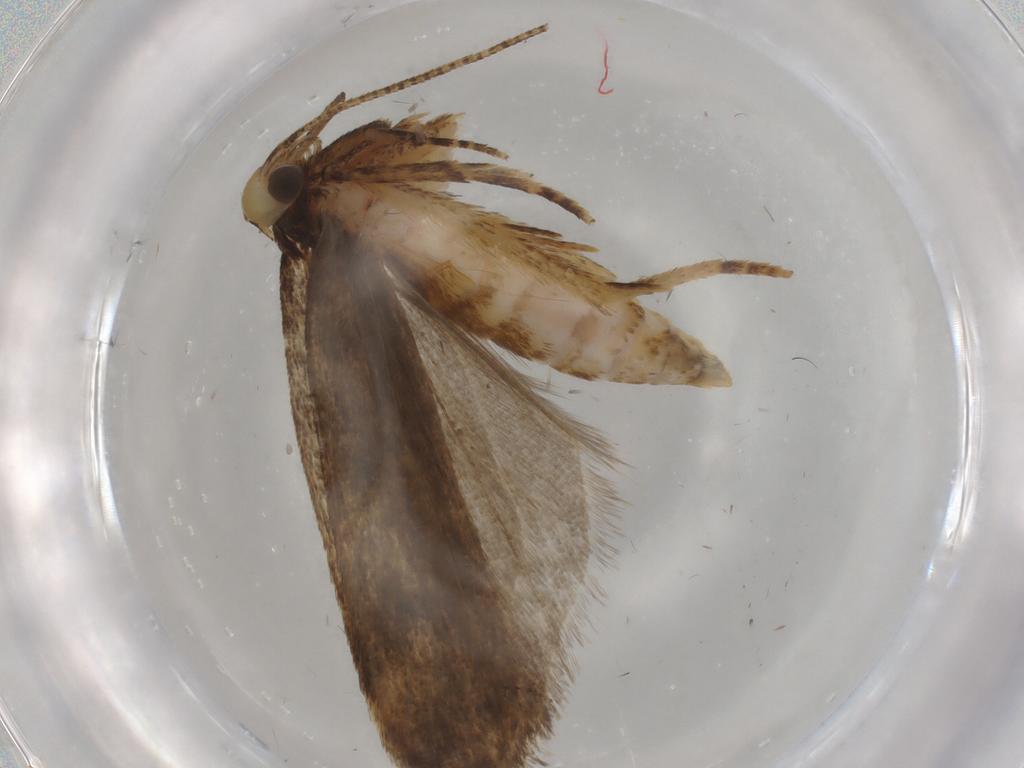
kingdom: Animalia
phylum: Arthropoda
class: Insecta
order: Lepidoptera
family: Autostichidae
